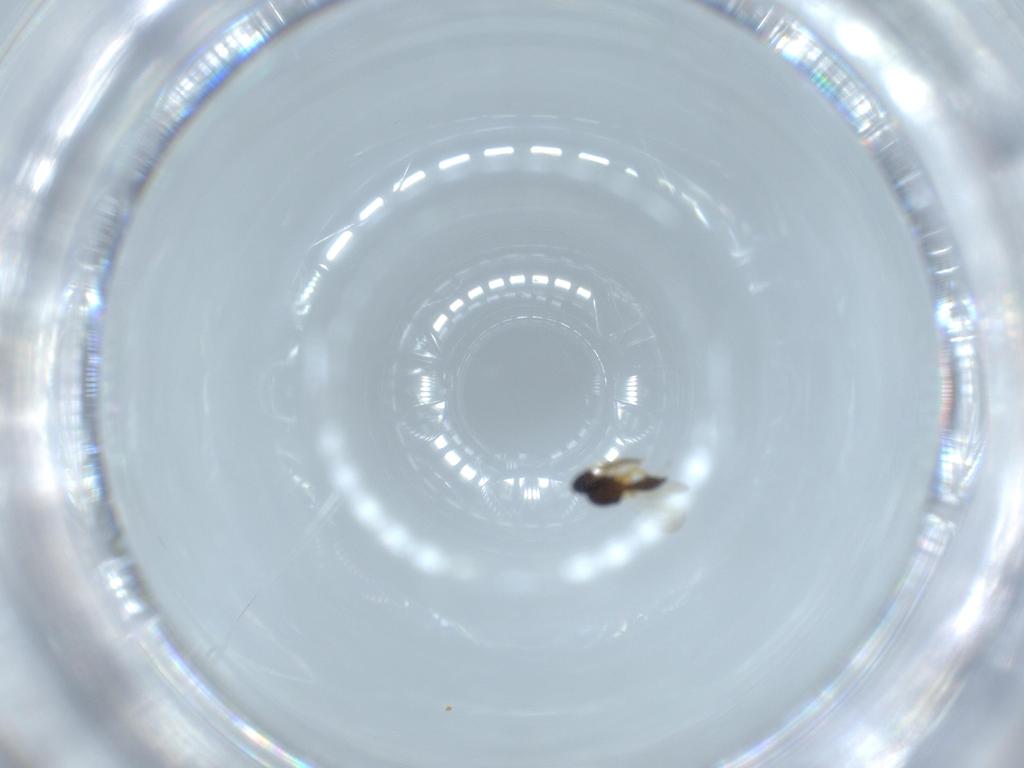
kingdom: Animalia
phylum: Arthropoda
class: Insecta
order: Hymenoptera
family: Platygastridae
